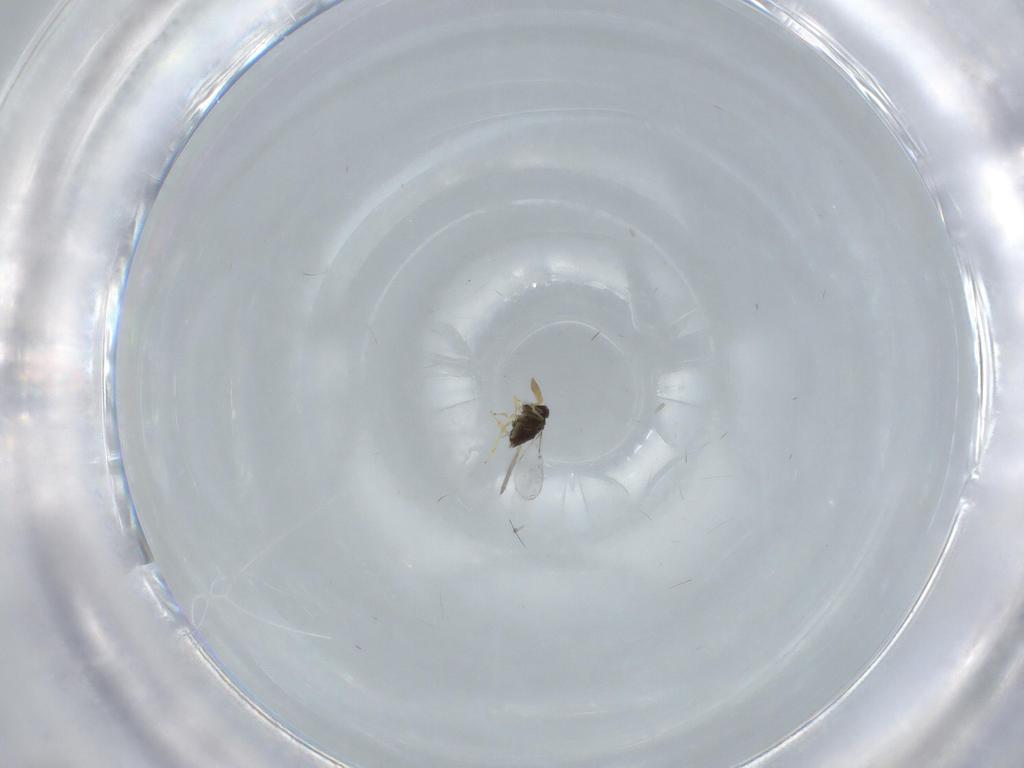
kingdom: Animalia
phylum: Arthropoda
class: Insecta
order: Hymenoptera
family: Encyrtidae
